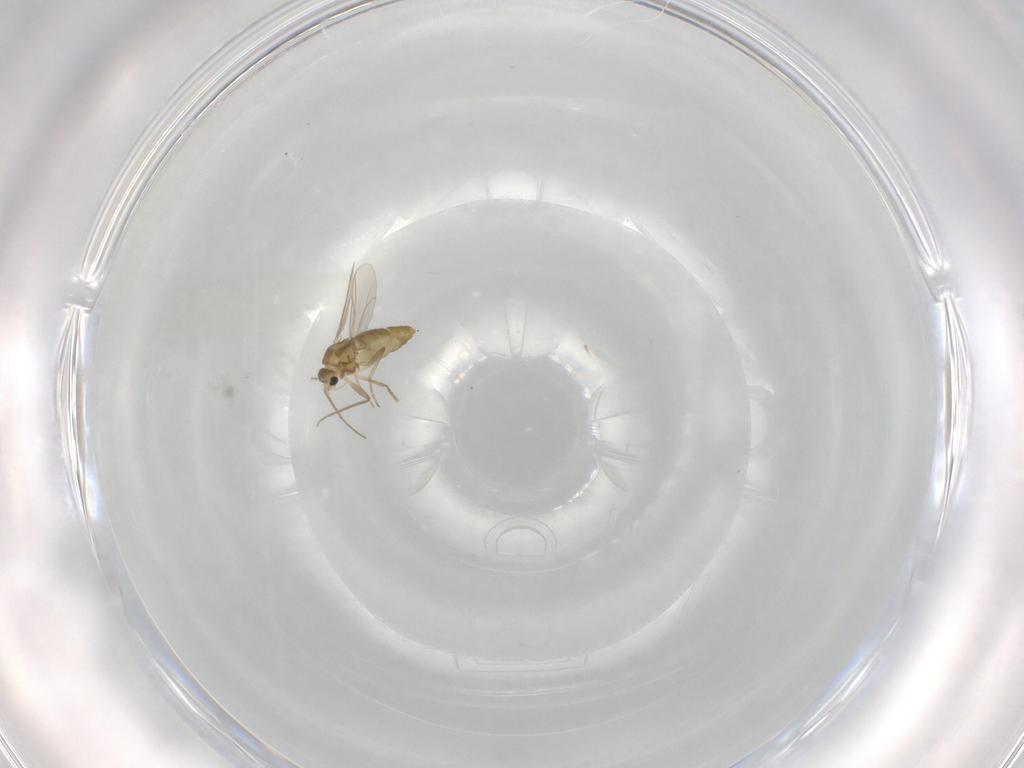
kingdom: Animalia
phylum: Arthropoda
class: Insecta
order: Diptera
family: Chironomidae
